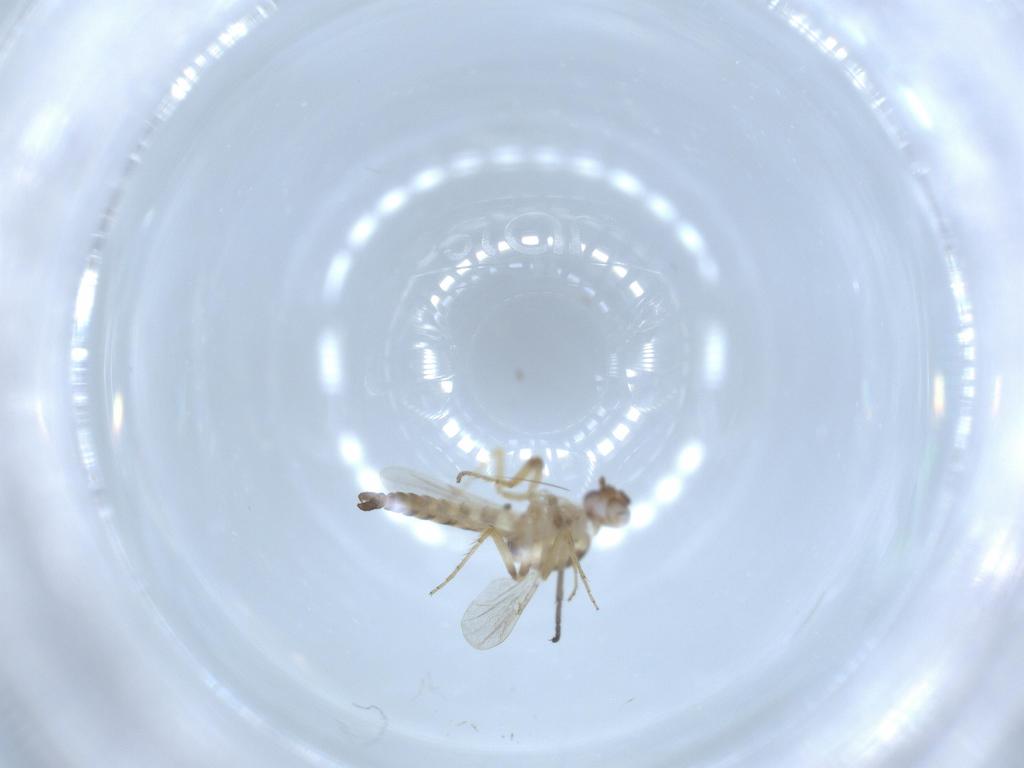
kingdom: Animalia
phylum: Arthropoda
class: Insecta
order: Diptera
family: Ceratopogonidae
